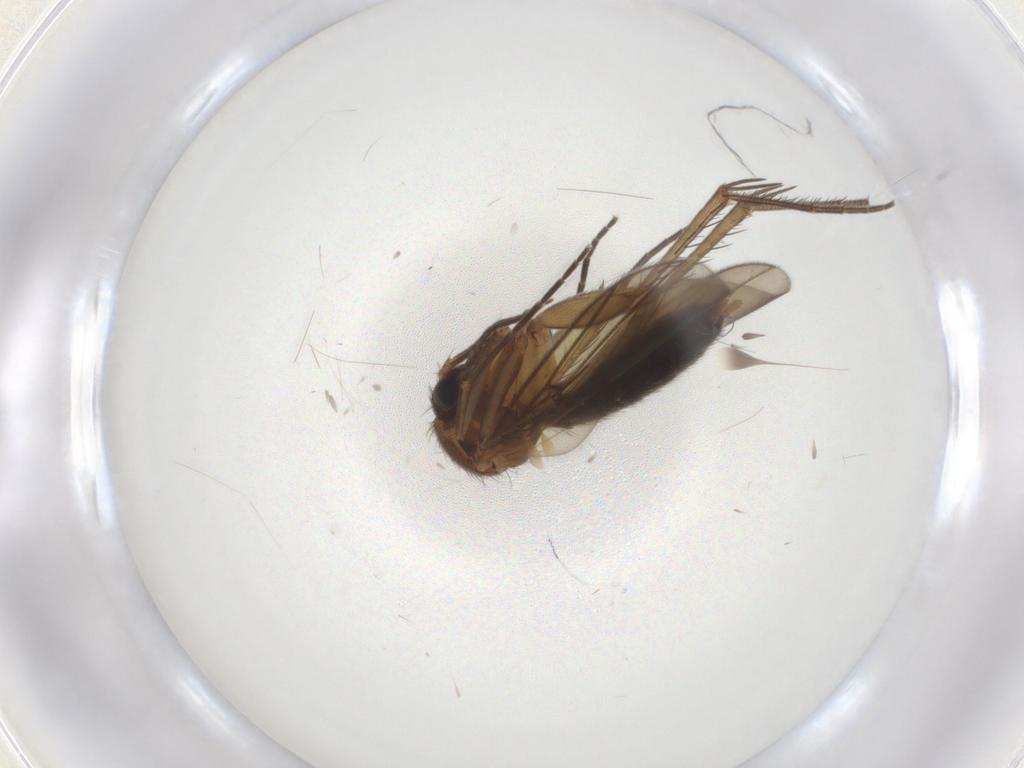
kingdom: Animalia
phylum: Arthropoda
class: Insecta
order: Diptera
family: Mycetophilidae
